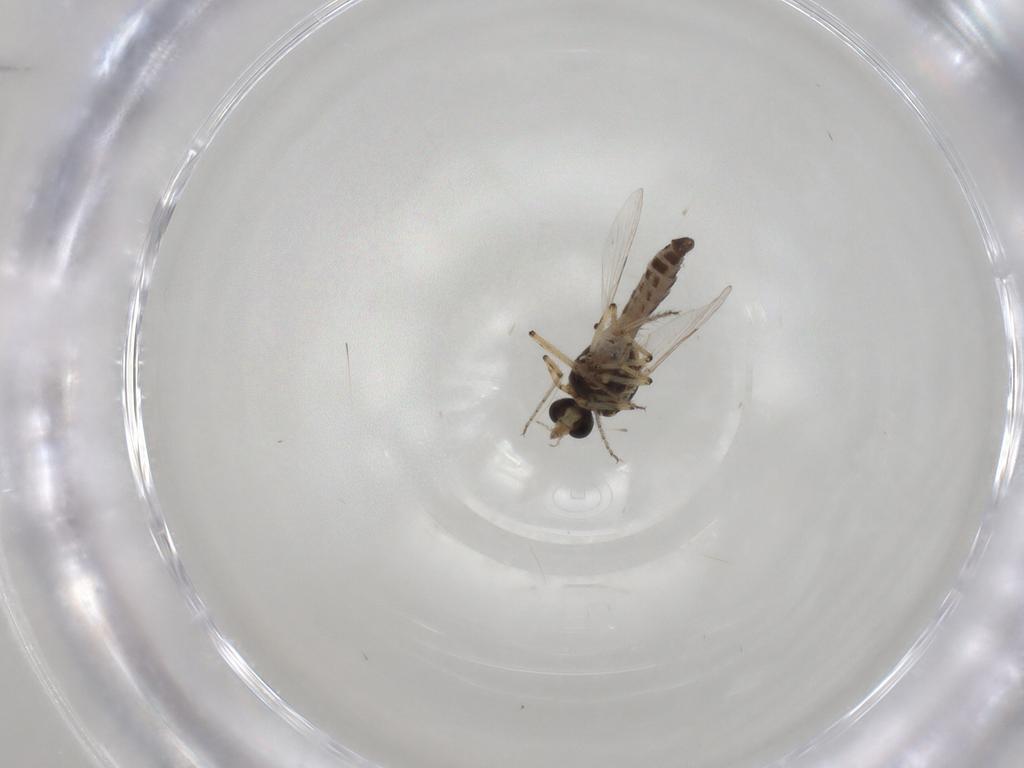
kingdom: Animalia
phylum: Arthropoda
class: Insecta
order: Diptera
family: Ceratopogonidae
